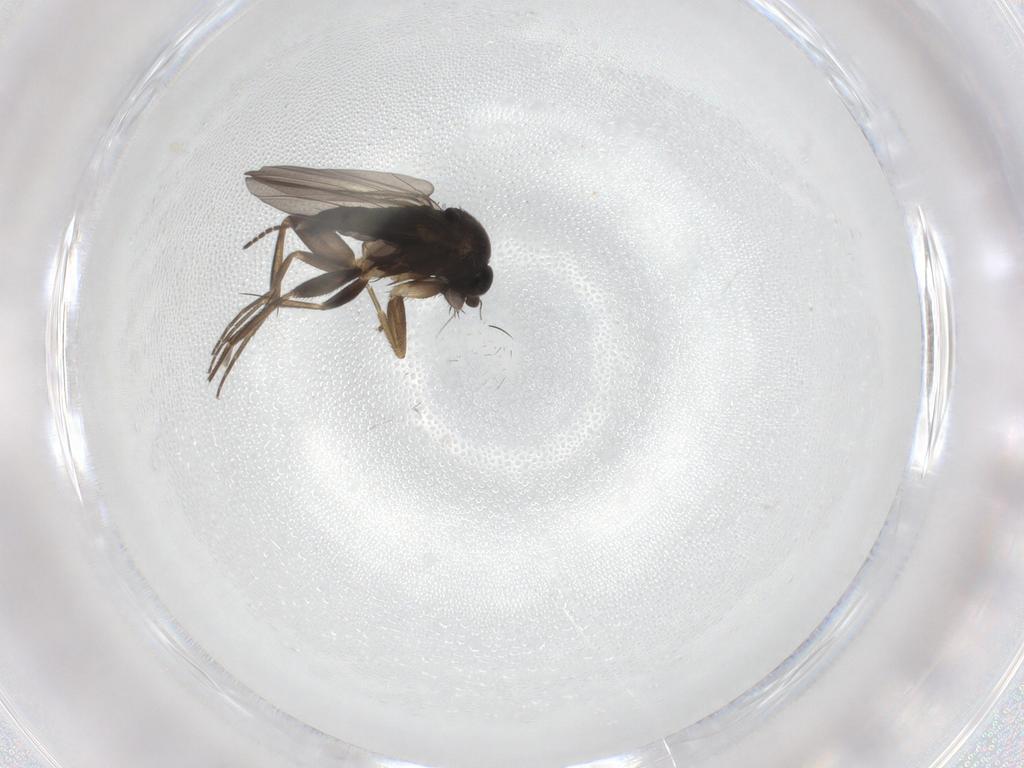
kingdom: Animalia
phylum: Arthropoda
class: Insecta
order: Diptera
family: Phoridae
